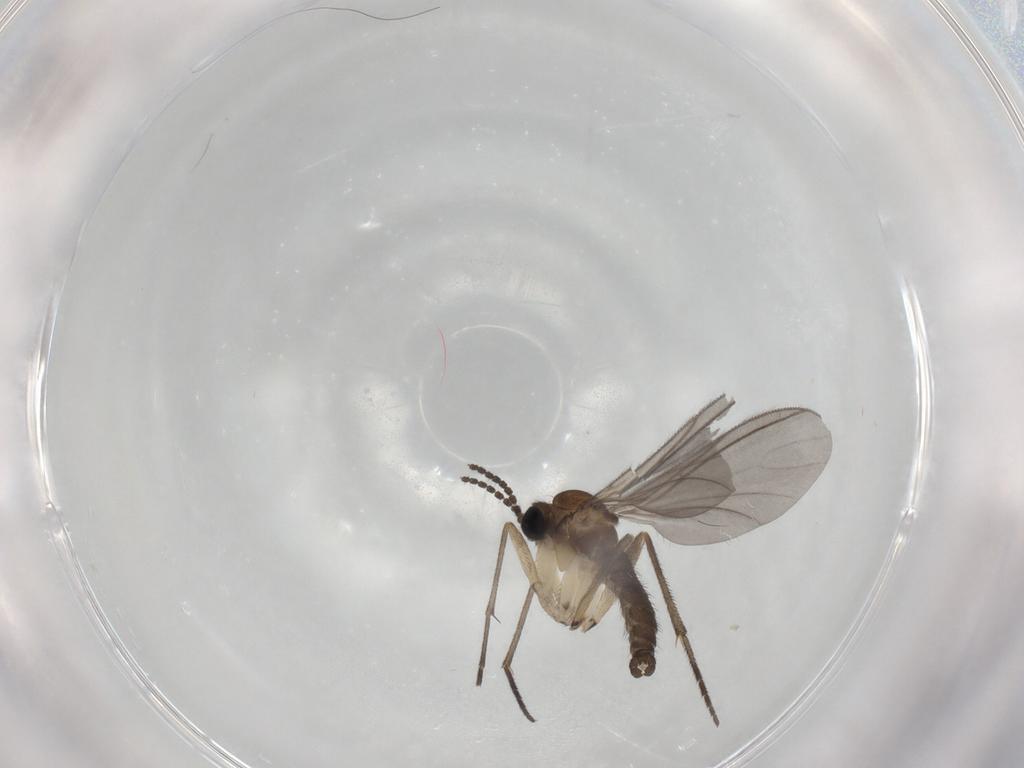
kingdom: Animalia
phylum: Arthropoda
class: Insecta
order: Diptera
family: Sciaridae
